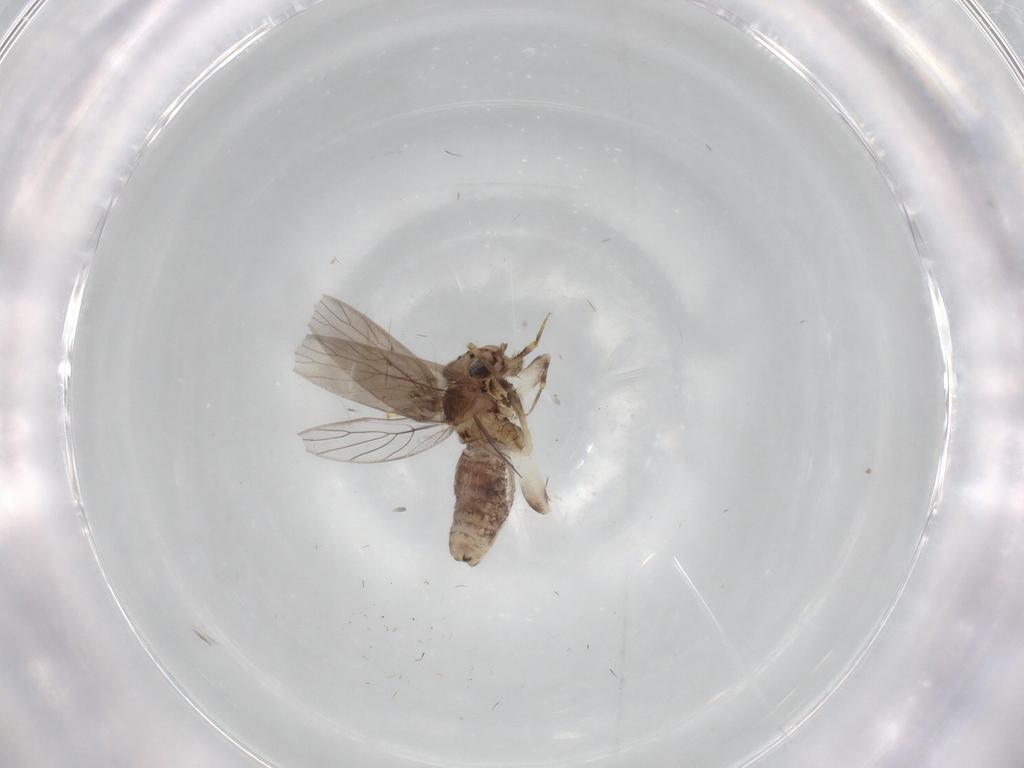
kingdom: Animalia
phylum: Arthropoda
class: Insecta
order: Psocodea
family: Lepidopsocidae
